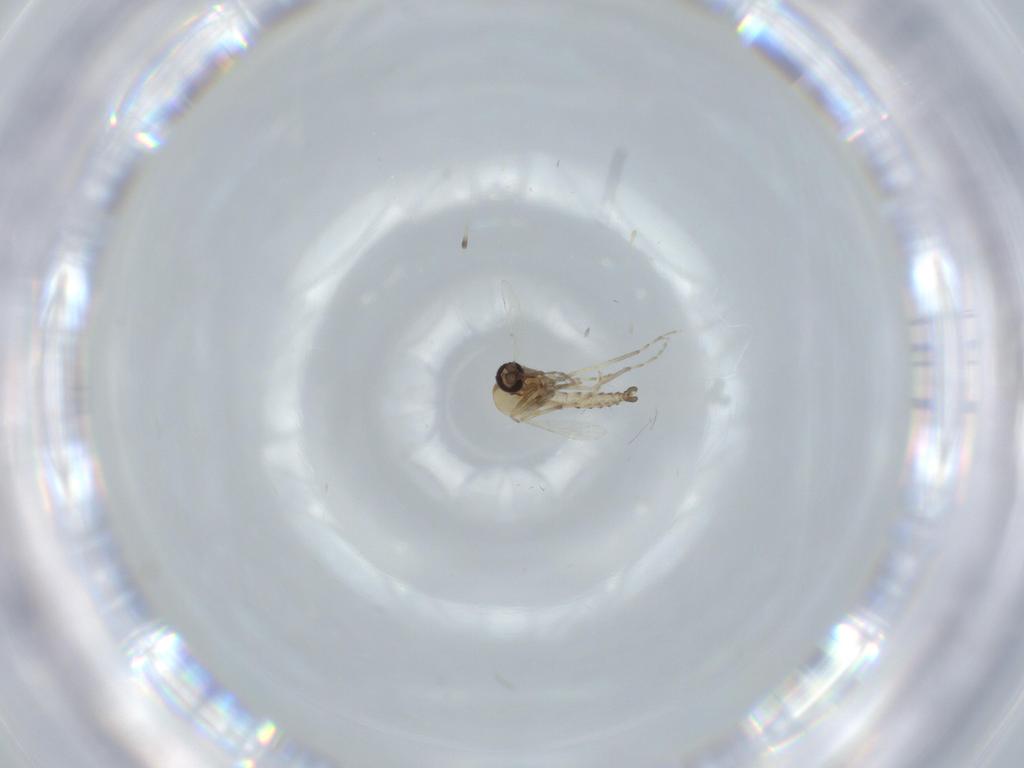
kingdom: Animalia
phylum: Arthropoda
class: Insecta
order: Diptera
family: Ceratopogonidae
